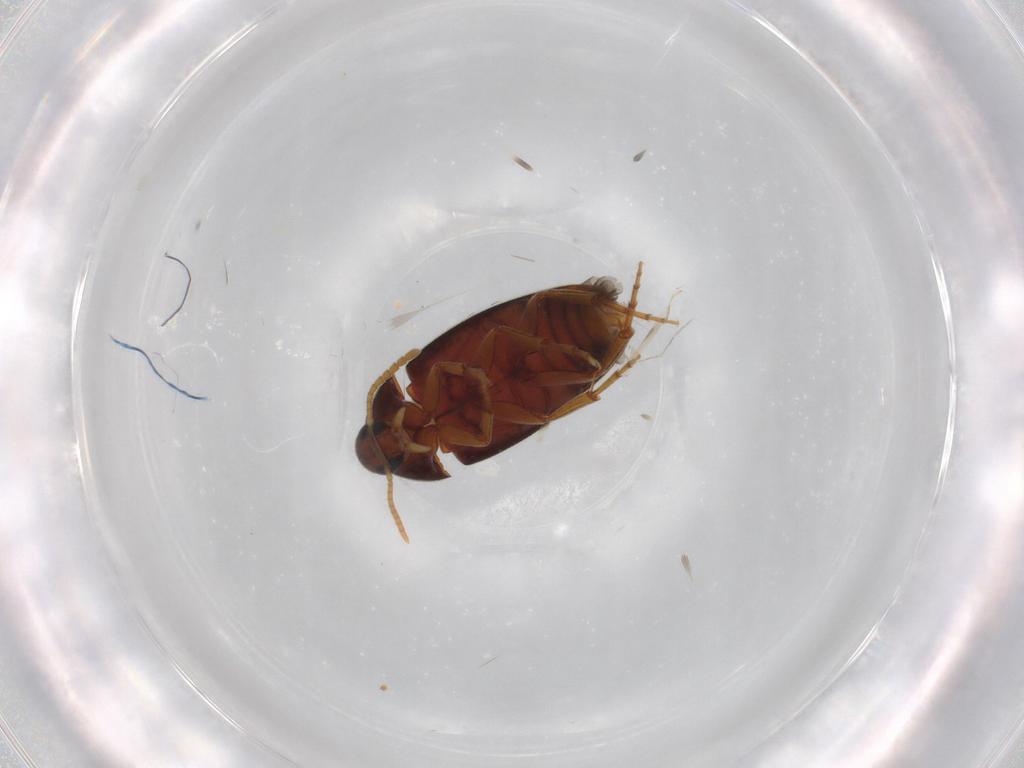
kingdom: Animalia
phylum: Arthropoda
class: Insecta
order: Coleoptera
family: Scraptiidae
